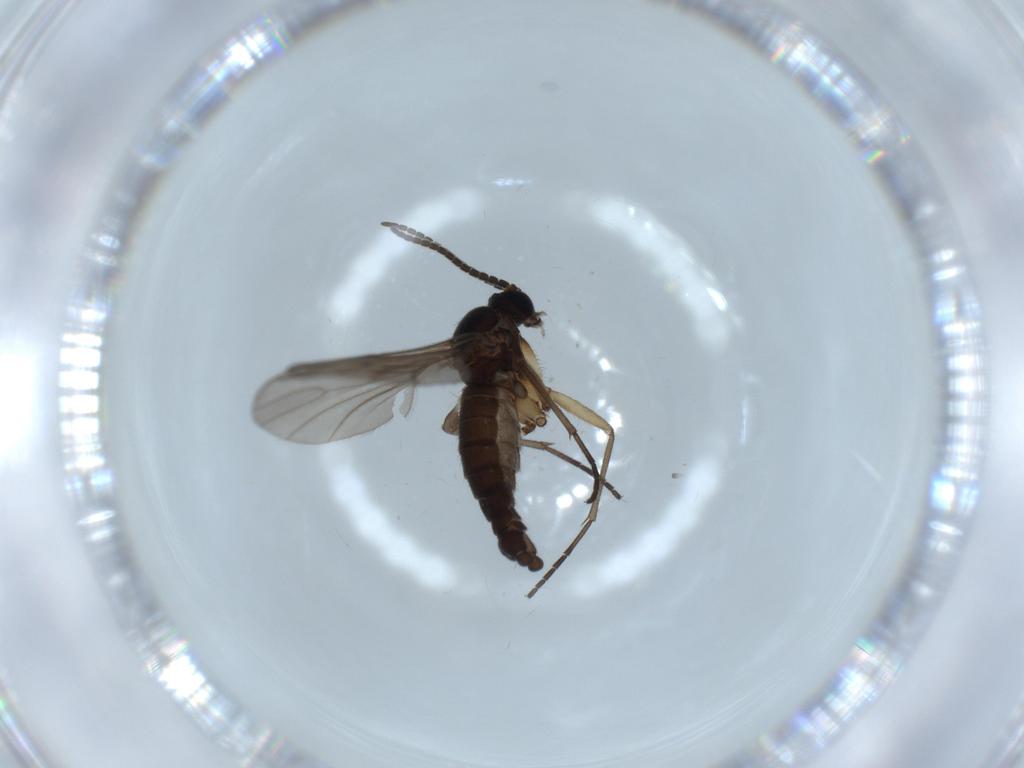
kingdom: Animalia
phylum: Arthropoda
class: Insecta
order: Diptera
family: Sciaridae
